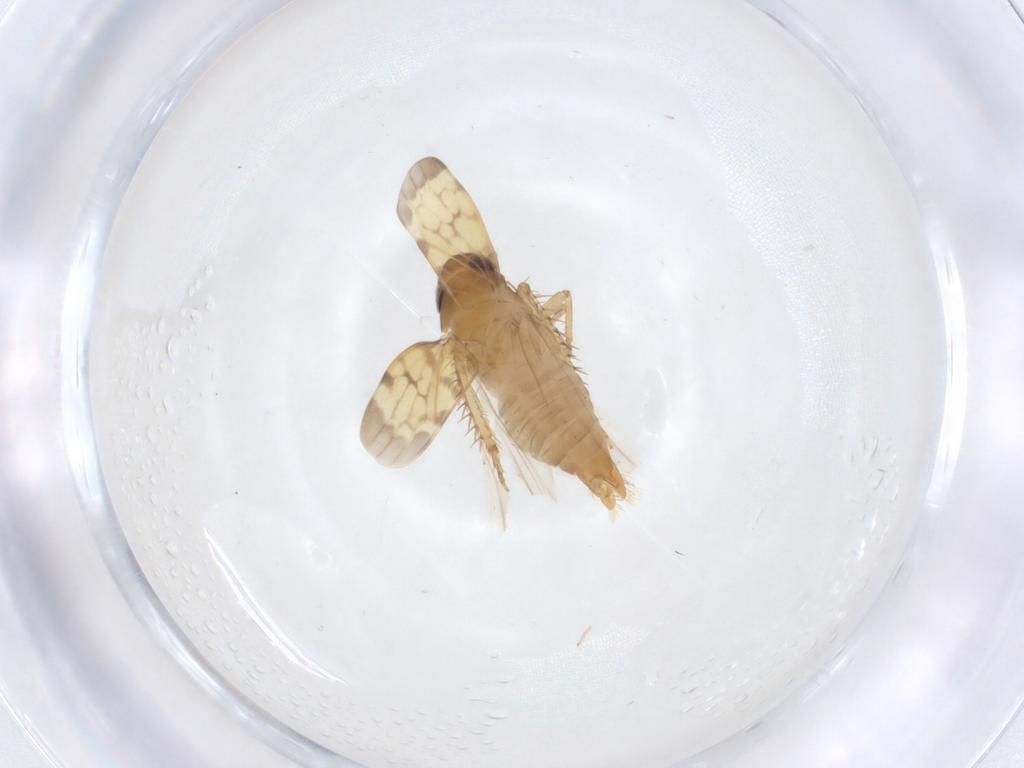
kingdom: Animalia
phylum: Arthropoda
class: Insecta
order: Hemiptera
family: Cicadellidae
